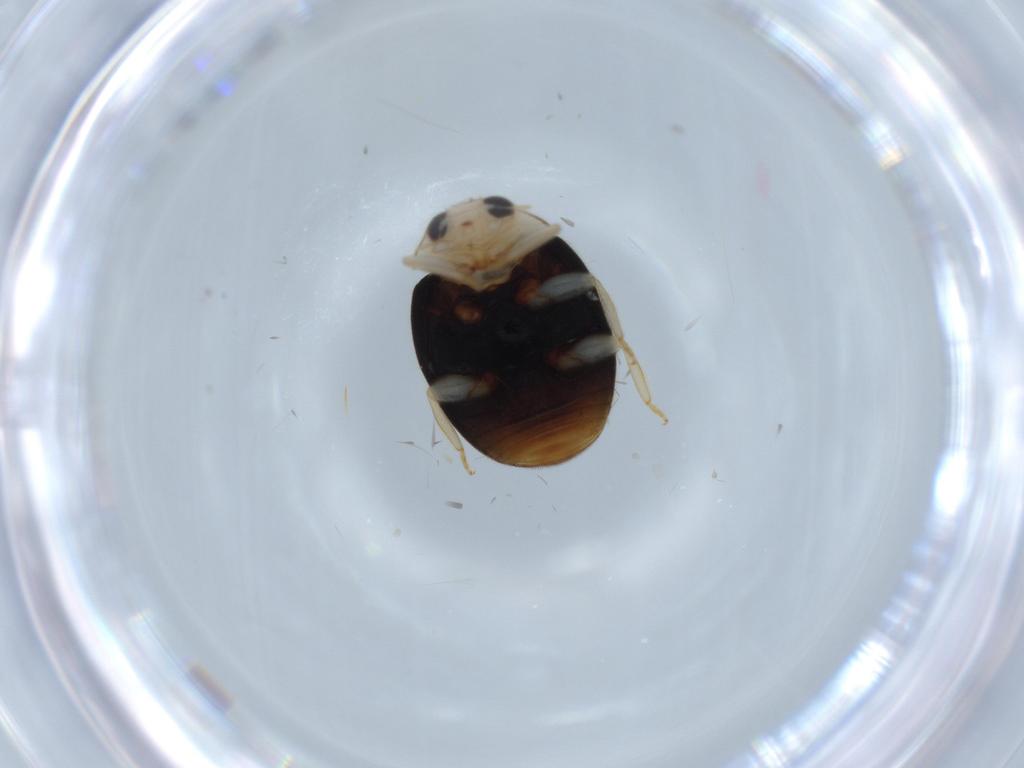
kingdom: Animalia
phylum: Arthropoda
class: Insecta
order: Coleoptera
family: Coccinellidae
